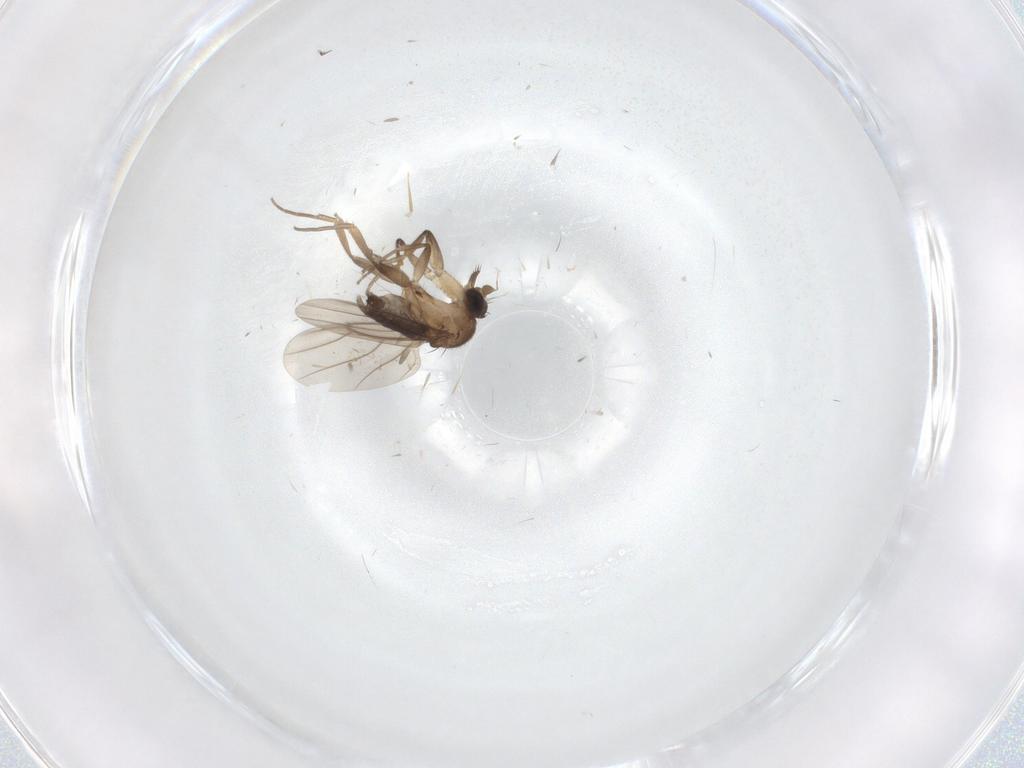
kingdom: Animalia
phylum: Arthropoda
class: Insecta
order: Diptera
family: Phoridae
